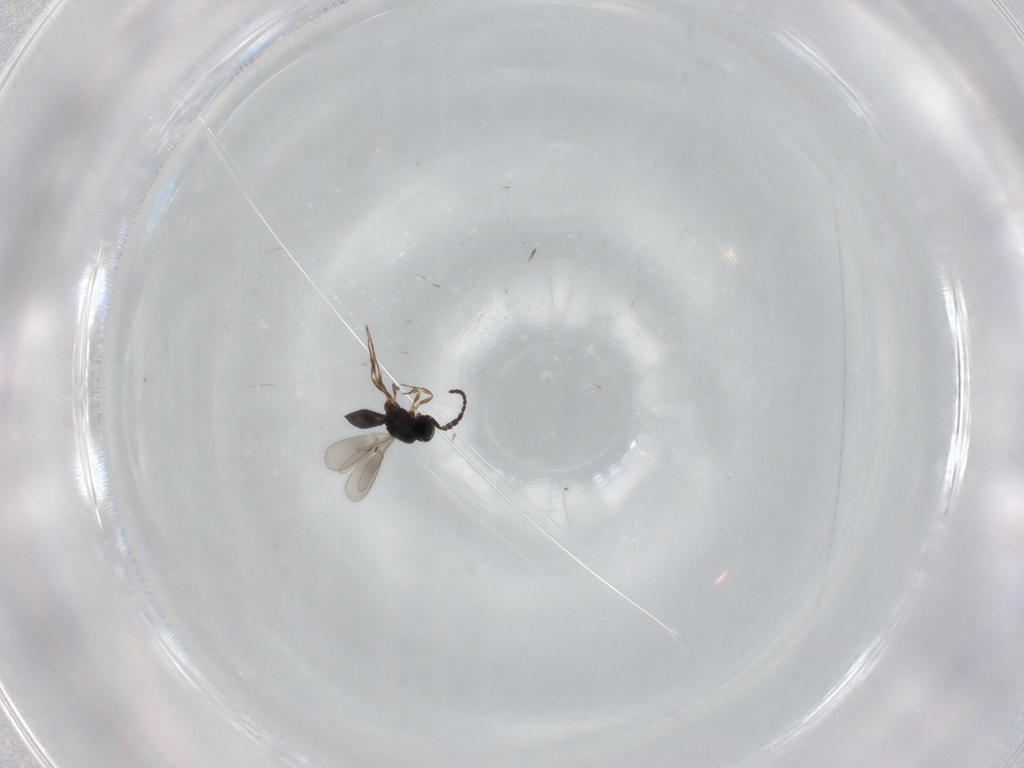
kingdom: Animalia
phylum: Arthropoda
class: Insecta
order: Hymenoptera
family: Scelionidae
